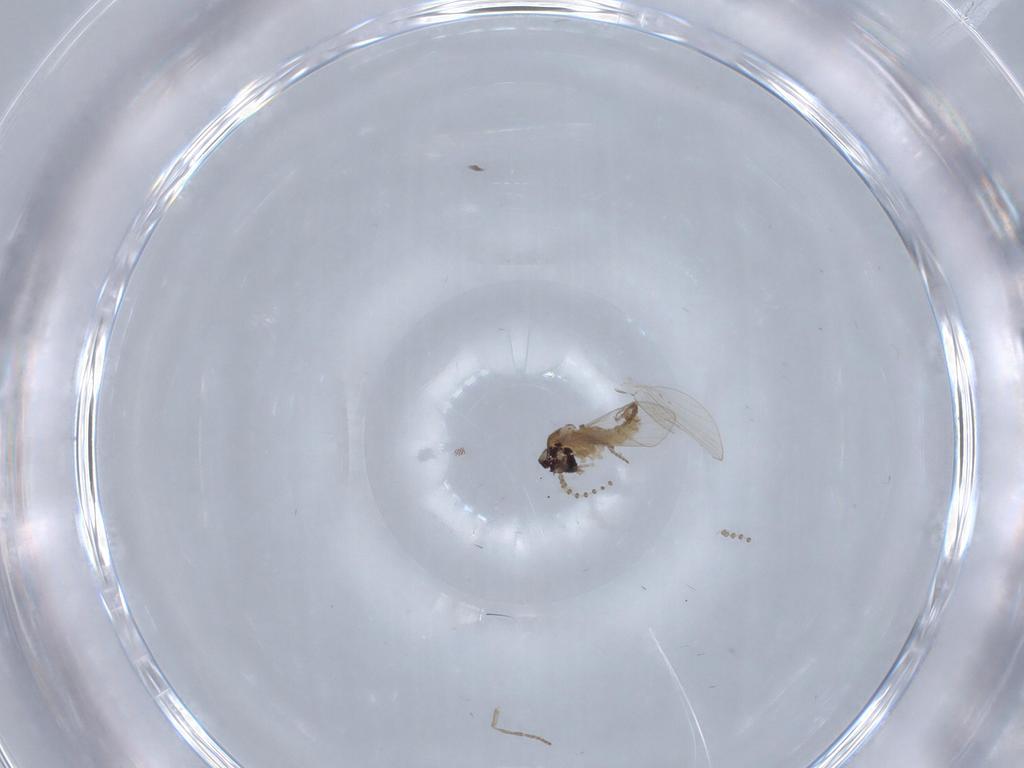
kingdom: Animalia
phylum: Arthropoda
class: Insecta
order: Diptera
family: Psychodidae
